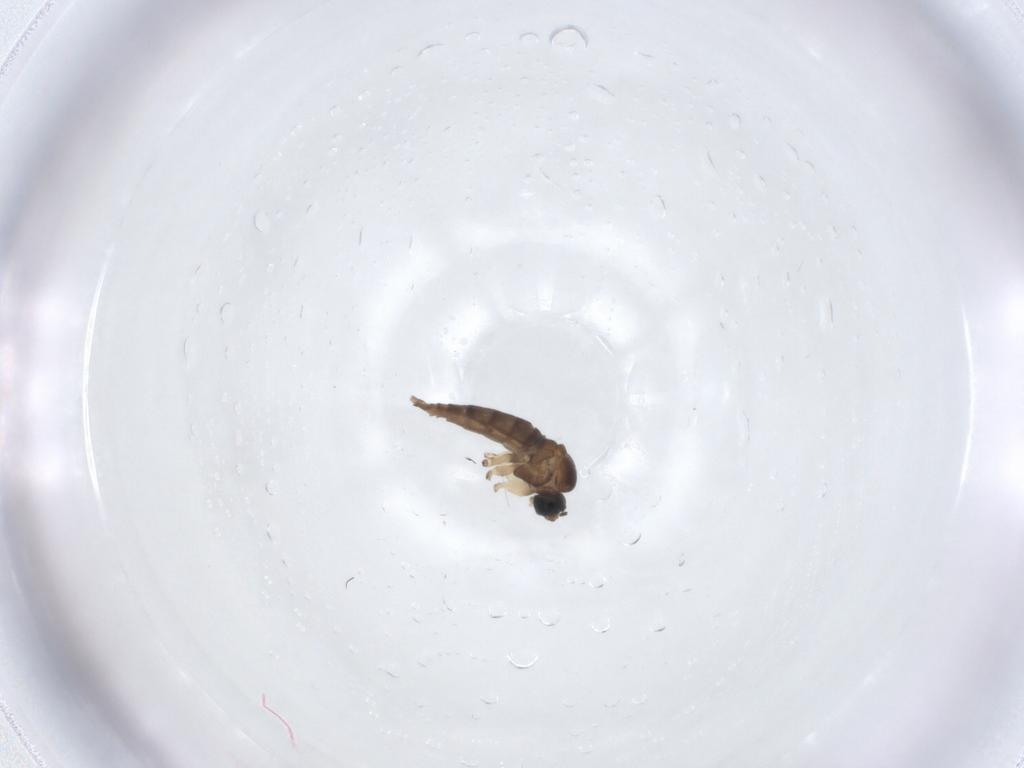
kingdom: Animalia
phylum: Arthropoda
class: Insecta
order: Diptera
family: Sciaridae
